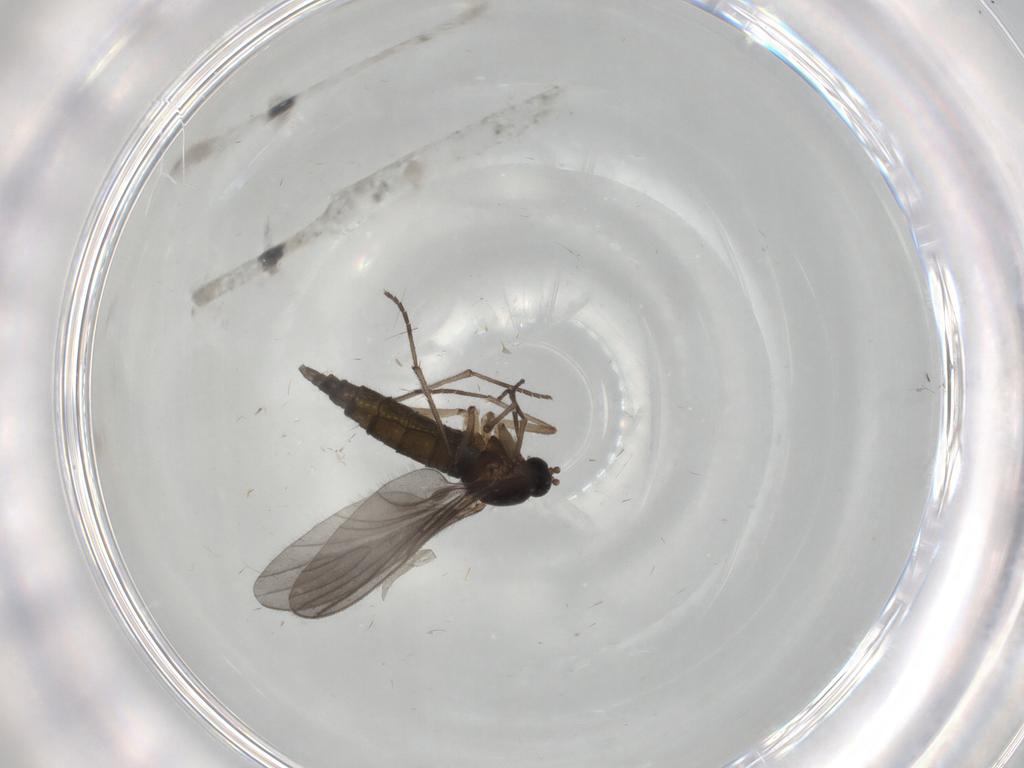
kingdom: Animalia
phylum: Arthropoda
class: Insecta
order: Diptera
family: Sciaridae
